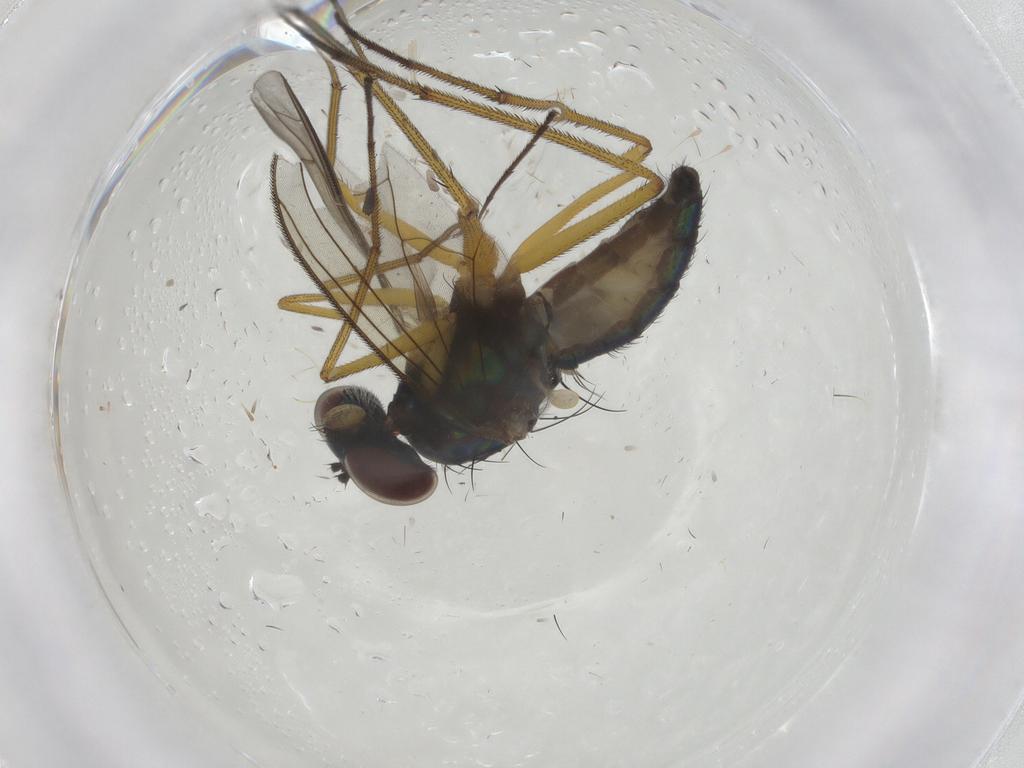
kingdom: Animalia
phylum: Arthropoda
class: Insecta
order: Diptera
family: Dolichopodidae
